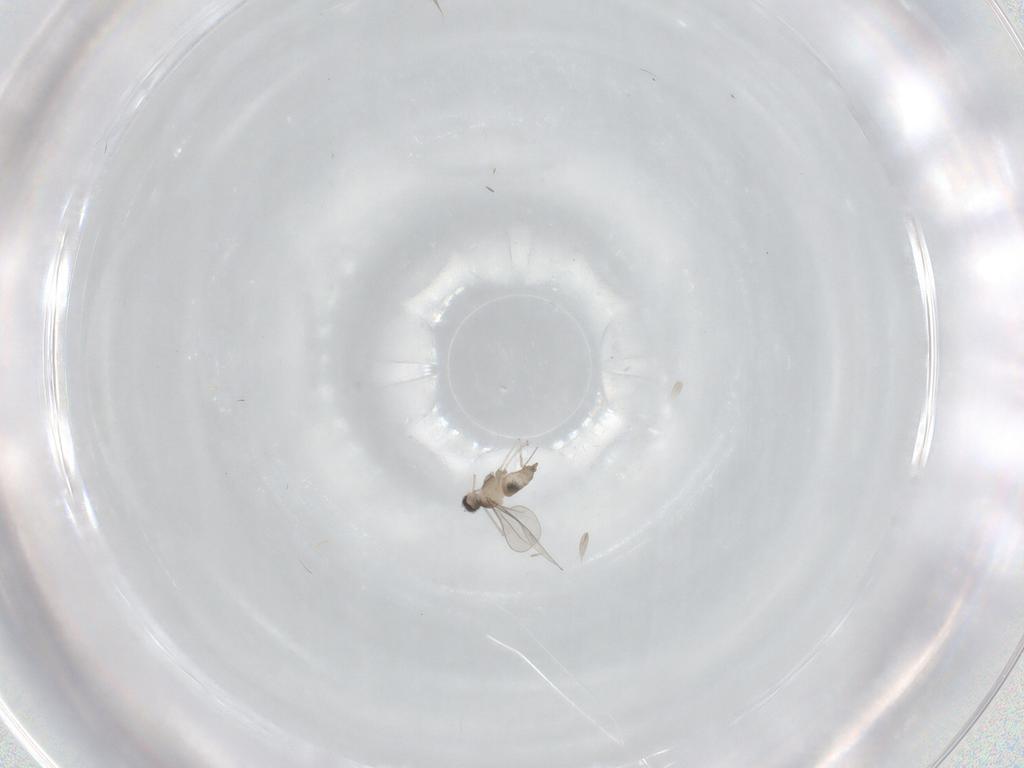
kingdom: Animalia
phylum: Arthropoda
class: Insecta
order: Diptera
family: Cecidomyiidae
